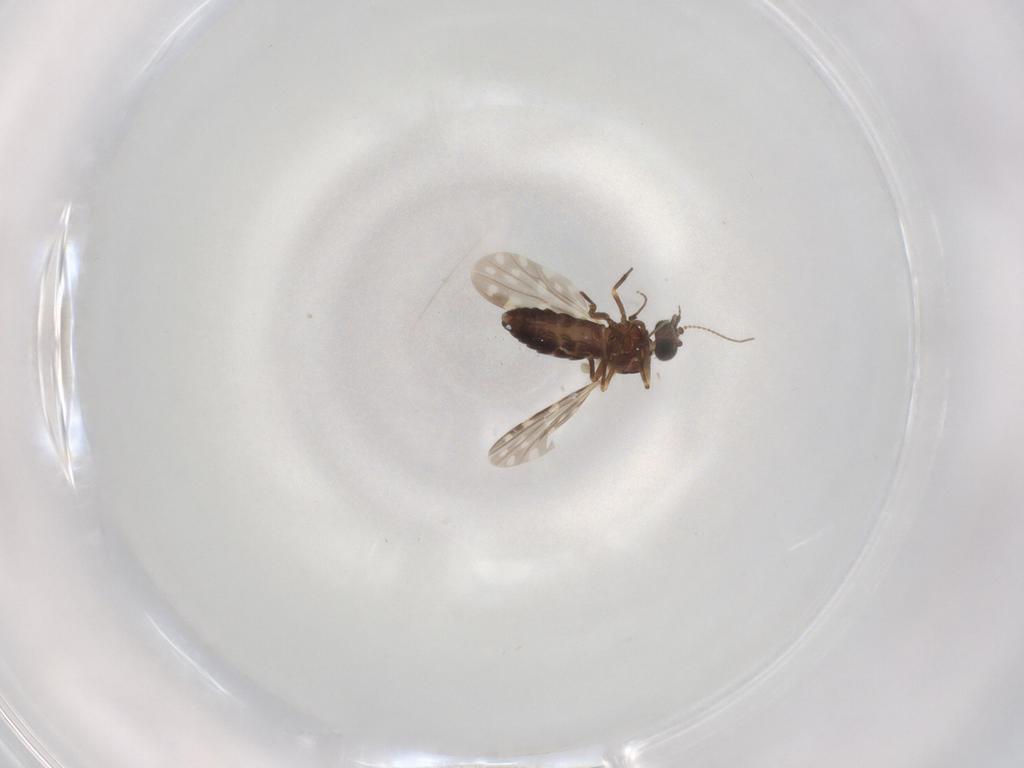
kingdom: Animalia
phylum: Arthropoda
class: Insecta
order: Diptera
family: Ceratopogonidae
